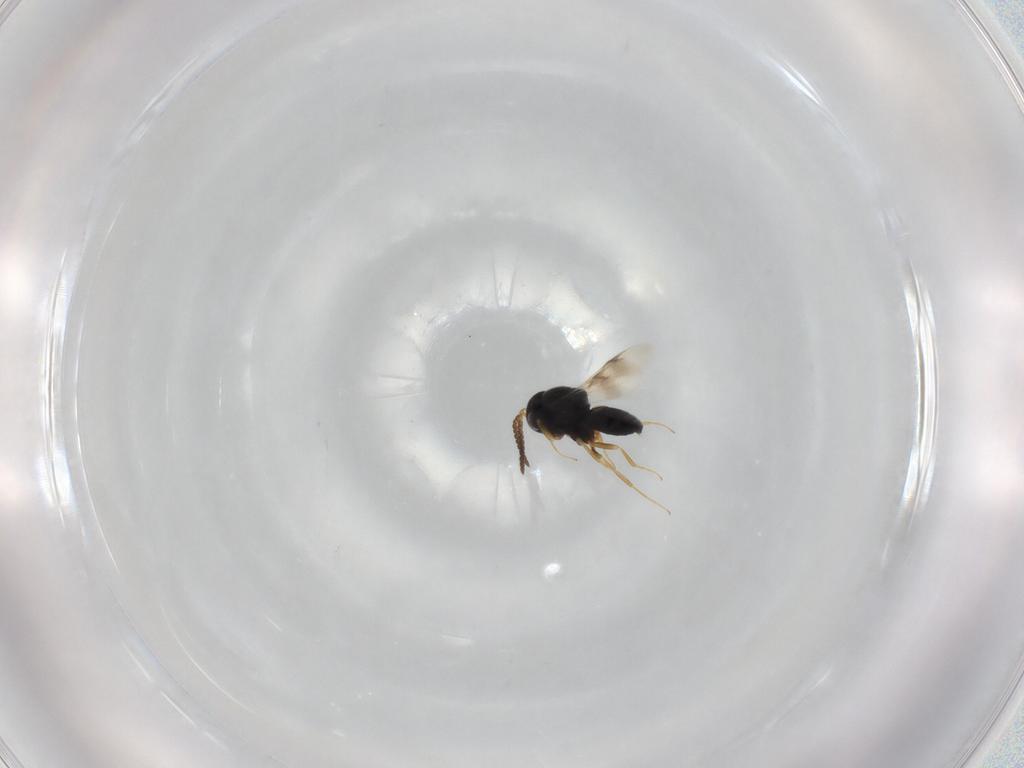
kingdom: Animalia
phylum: Arthropoda
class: Insecta
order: Hymenoptera
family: Scelionidae
